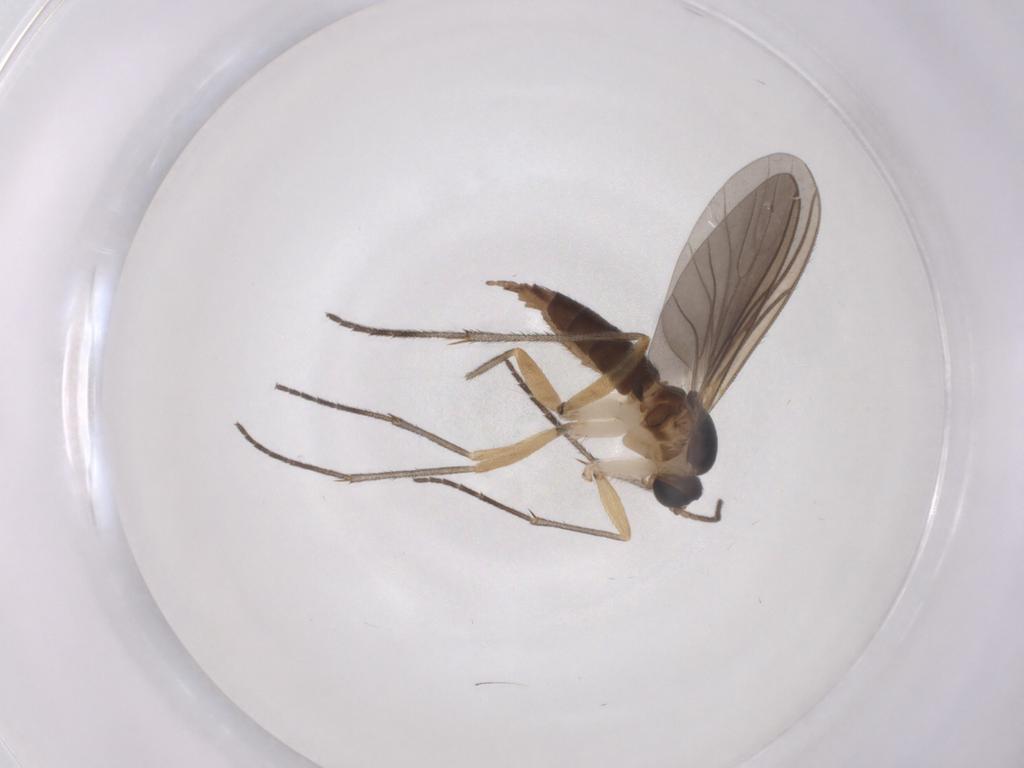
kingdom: Animalia
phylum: Arthropoda
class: Insecta
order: Diptera
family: Sciaridae
